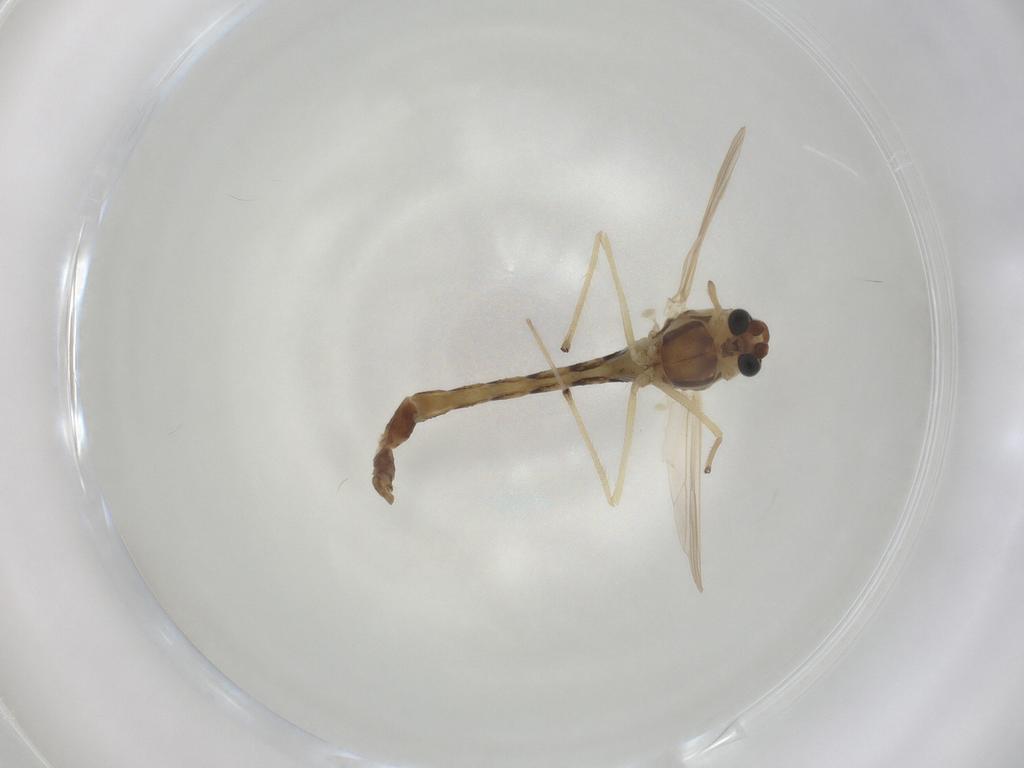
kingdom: Animalia
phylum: Arthropoda
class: Insecta
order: Diptera
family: Chironomidae
